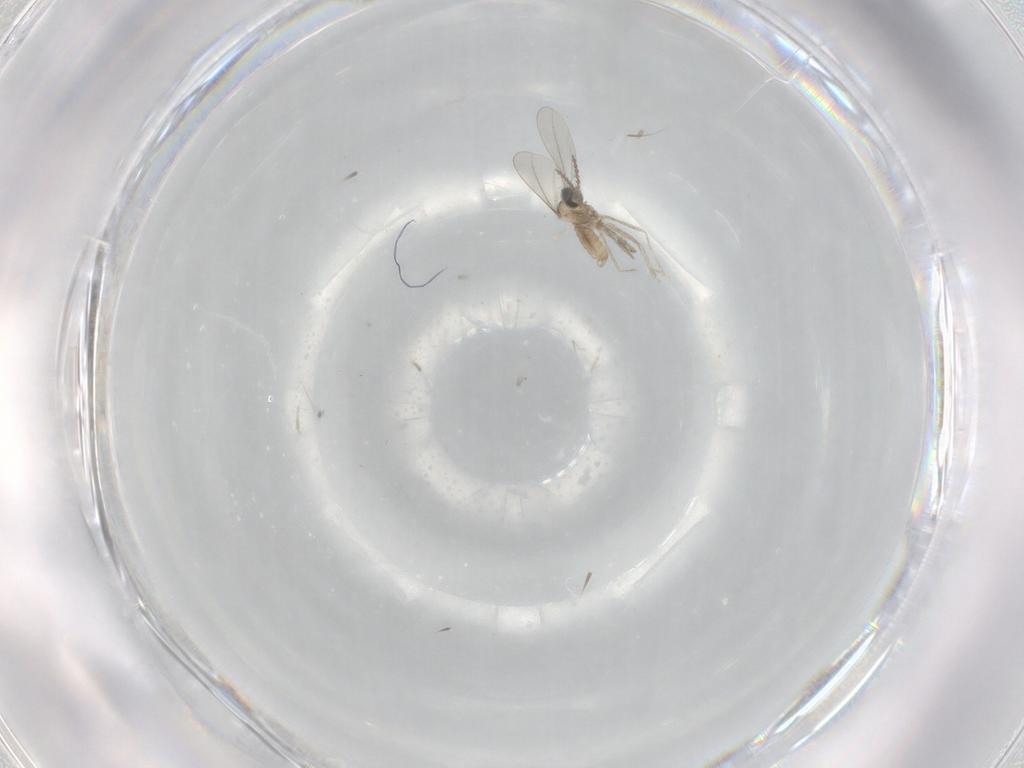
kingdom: Animalia
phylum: Arthropoda
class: Insecta
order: Diptera
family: Cecidomyiidae
